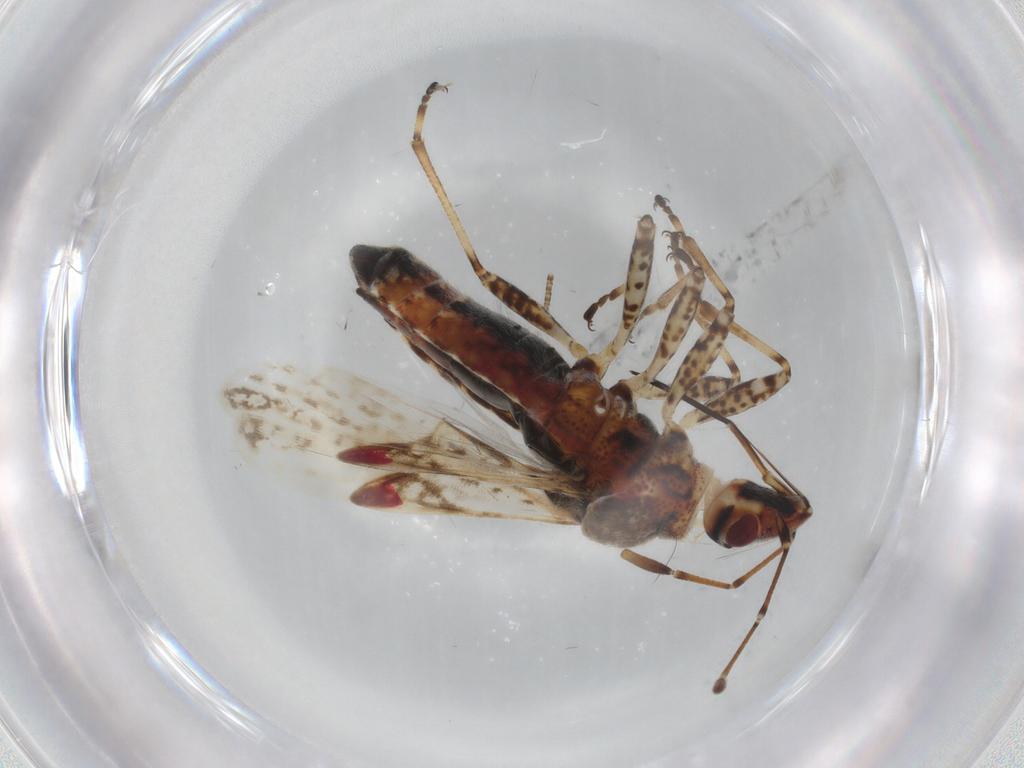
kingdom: Animalia
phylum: Arthropoda
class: Insecta
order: Hemiptera
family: Lygaeidae
